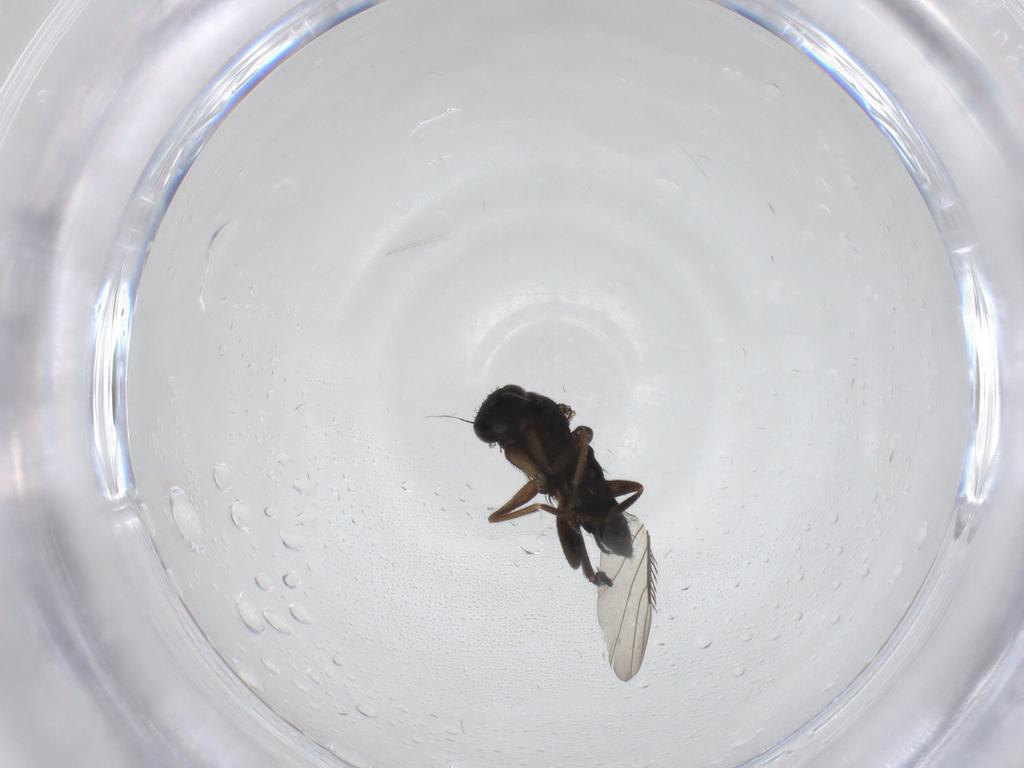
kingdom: Animalia
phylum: Arthropoda
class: Insecta
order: Diptera
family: Phoridae
